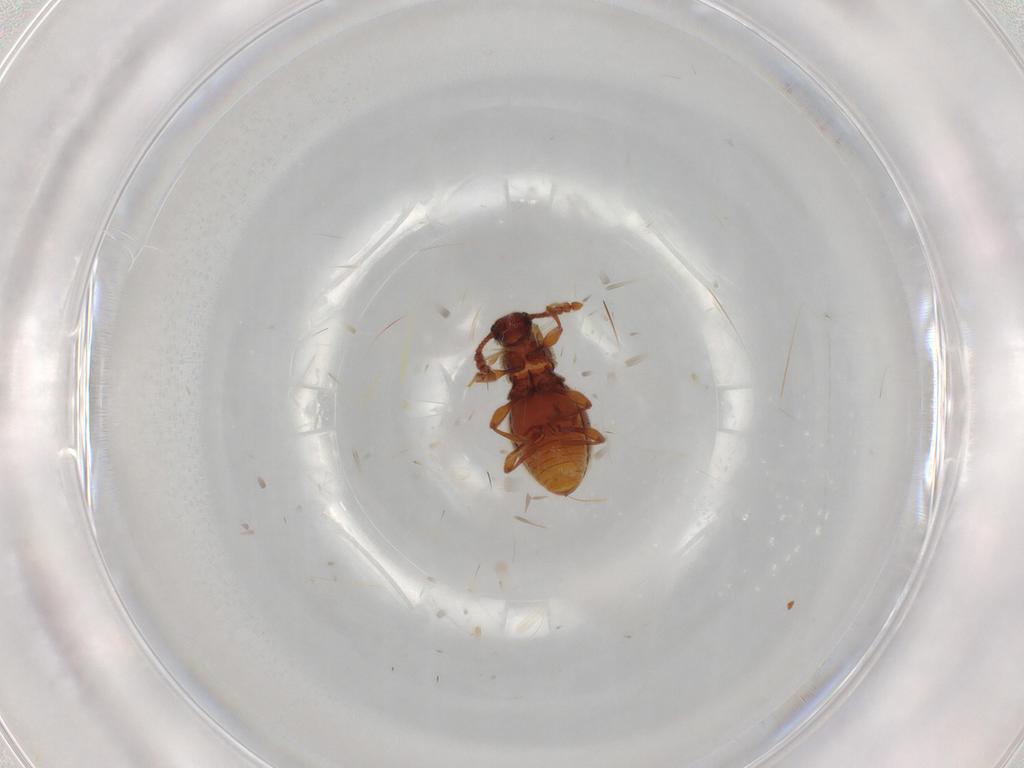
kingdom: Animalia
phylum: Arthropoda
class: Insecta
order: Coleoptera
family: Staphylinidae
